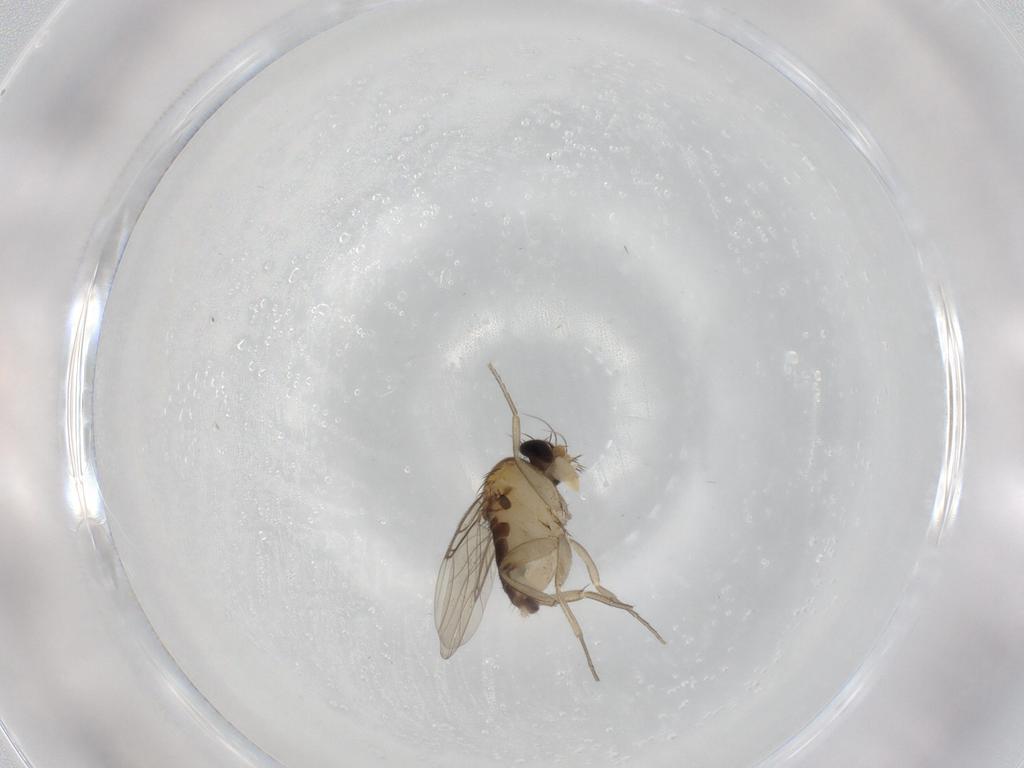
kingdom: Animalia
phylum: Arthropoda
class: Insecta
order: Diptera
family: Phoridae
